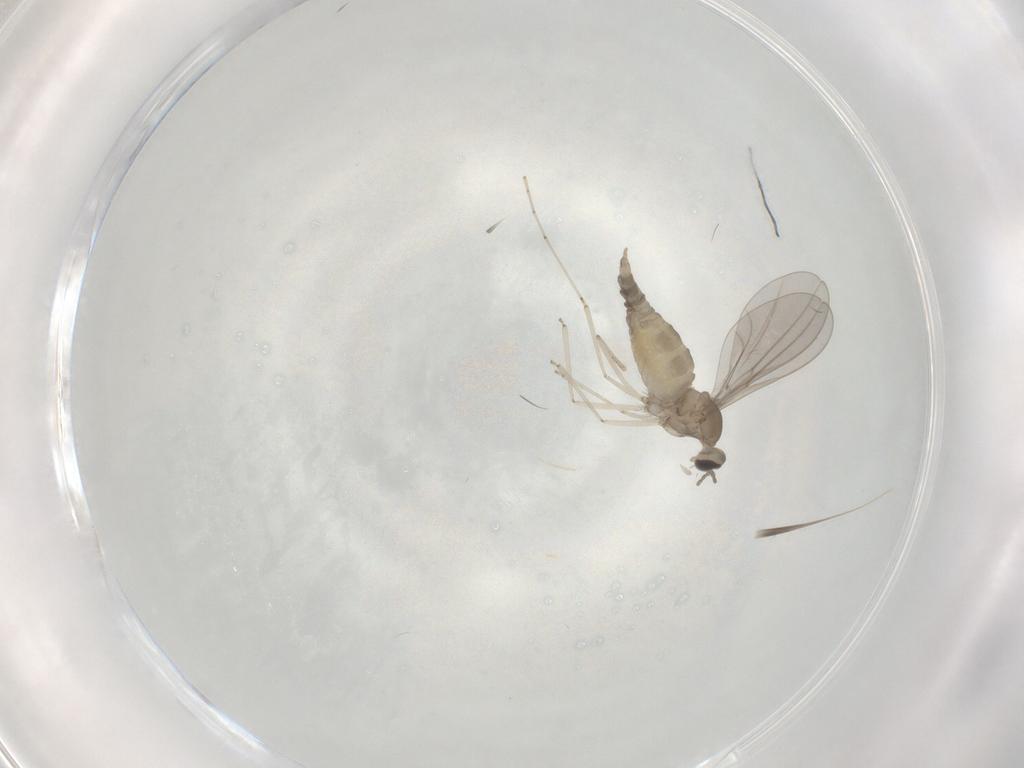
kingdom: Animalia
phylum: Arthropoda
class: Insecta
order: Diptera
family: Cecidomyiidae
